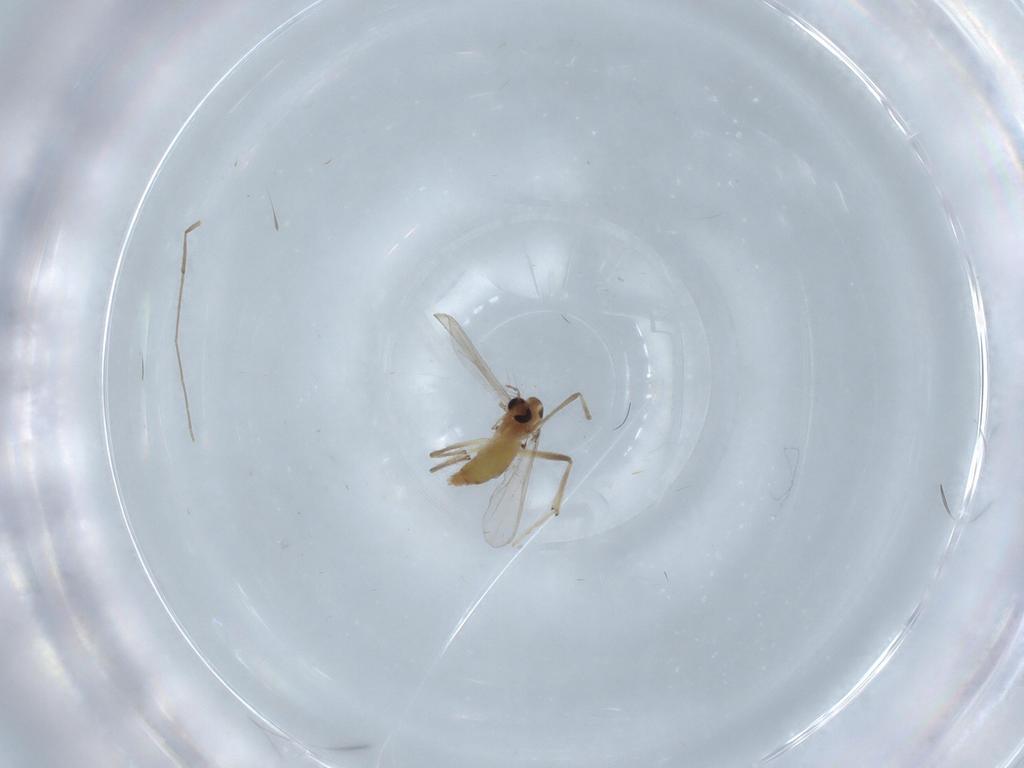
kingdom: Animalia
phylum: Arthropoda
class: Insecta
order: Diptera
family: Chironomidae
